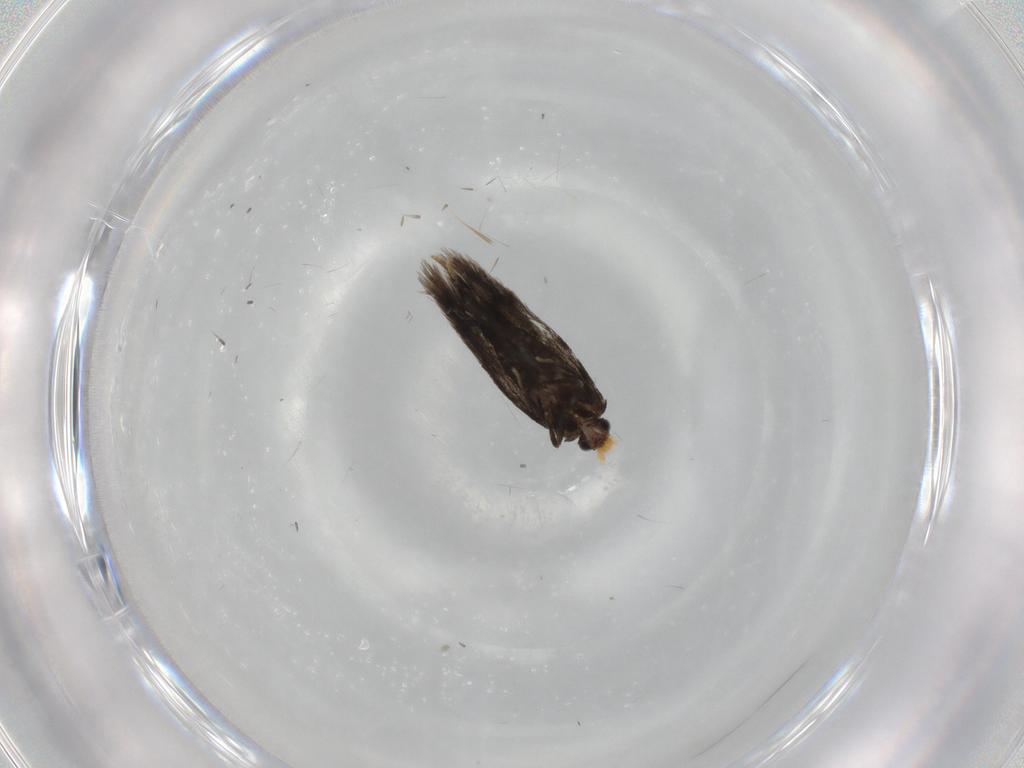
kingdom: Animalia
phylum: Arthropoda
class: Insecta
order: Lepidoptera
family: Nepticulidae
